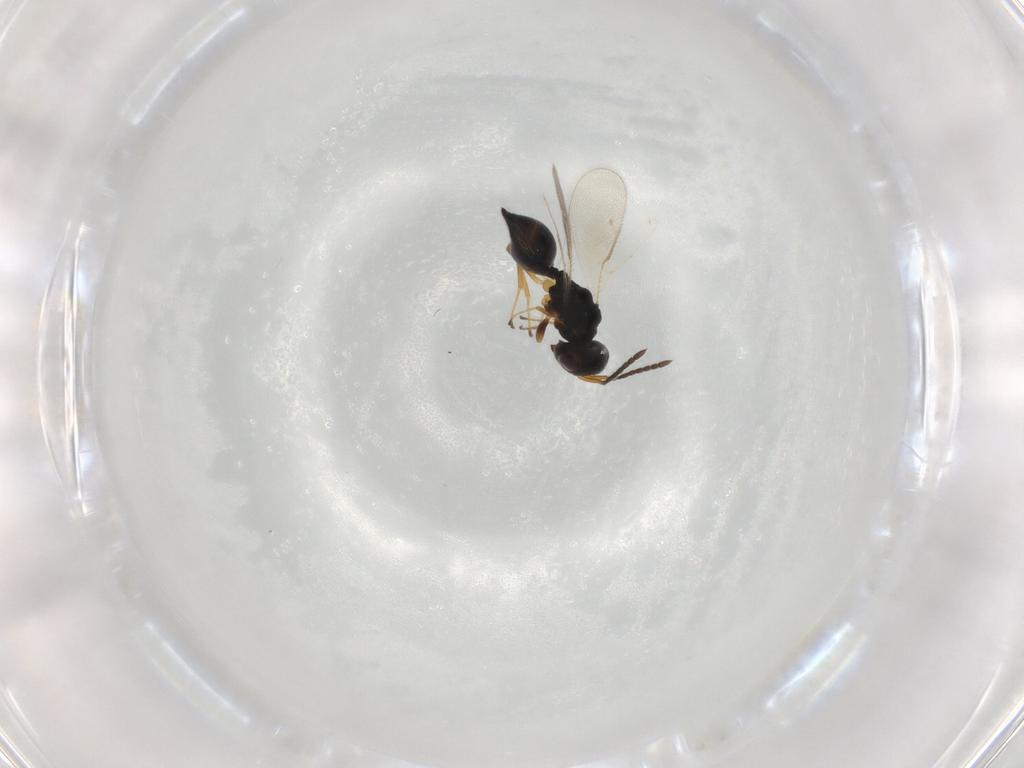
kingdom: Animalia
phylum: Arthropoda
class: Insecta
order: Hymenoptera
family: Pteromalidae
